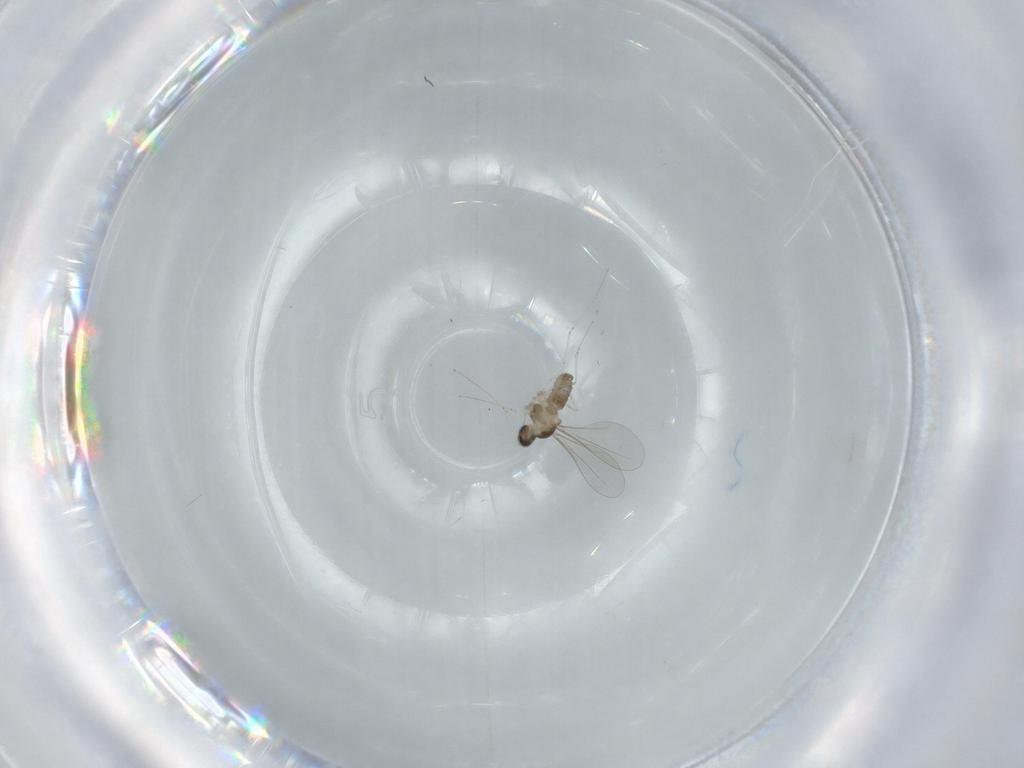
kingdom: Animalia
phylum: Arthropoda
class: Insecta
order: Diptera
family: Cecidomyiidae
